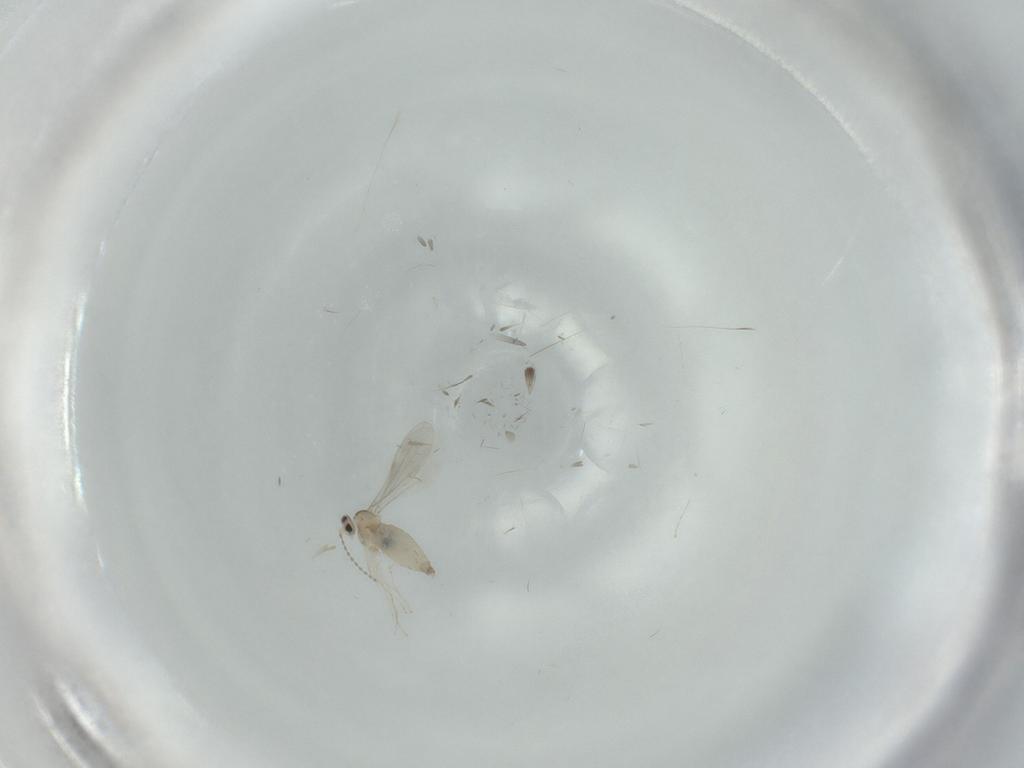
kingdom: Animalia
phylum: Arthropoda
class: Insecta
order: Diptera
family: Cecidomyiidae
